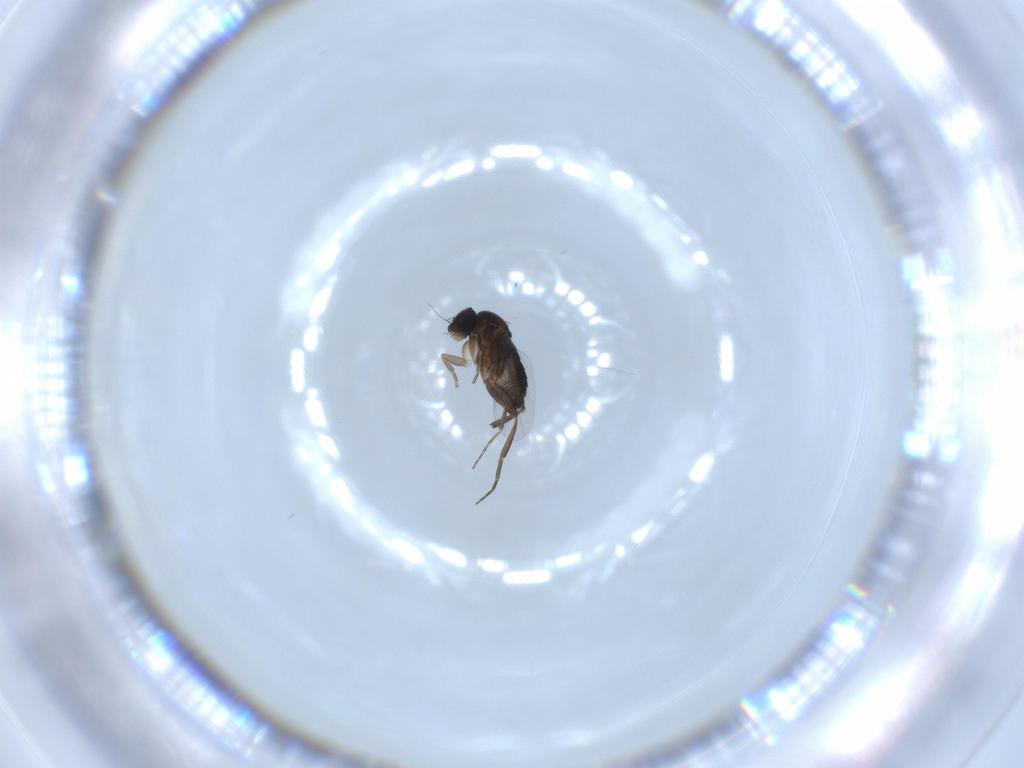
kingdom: Animalia
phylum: Arthropoda
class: Insecta
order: Diptera
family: Phoridae
